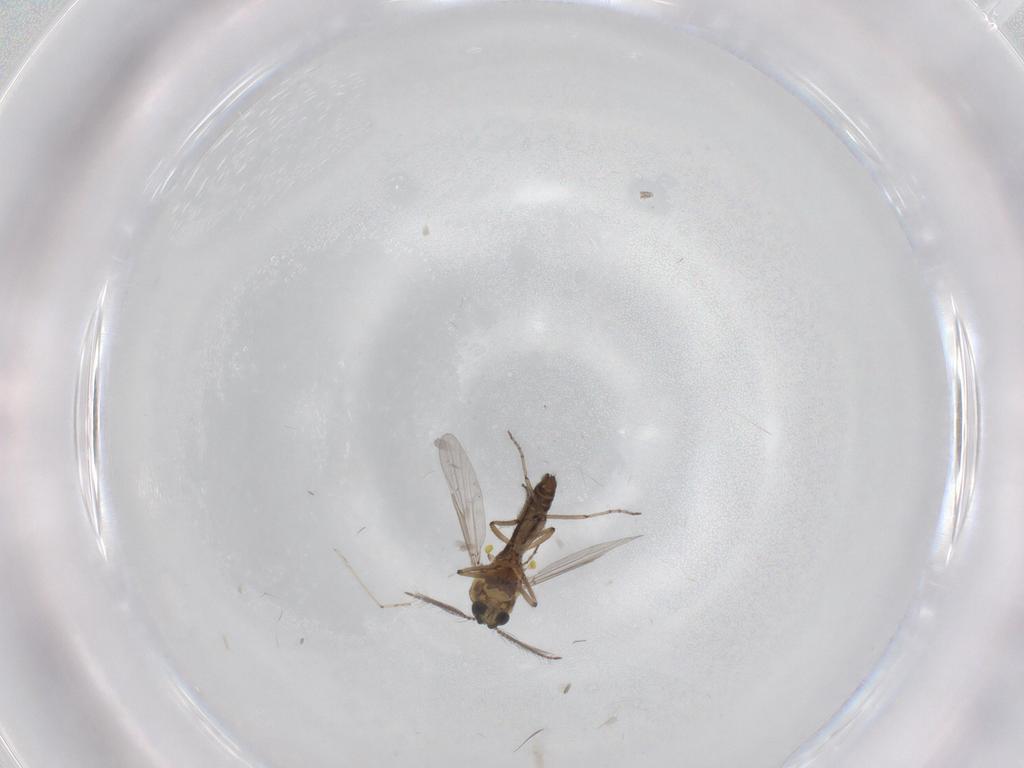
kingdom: Animalia
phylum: Arthropoda
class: Insecta
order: Diptera
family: Ceratopogonidae
